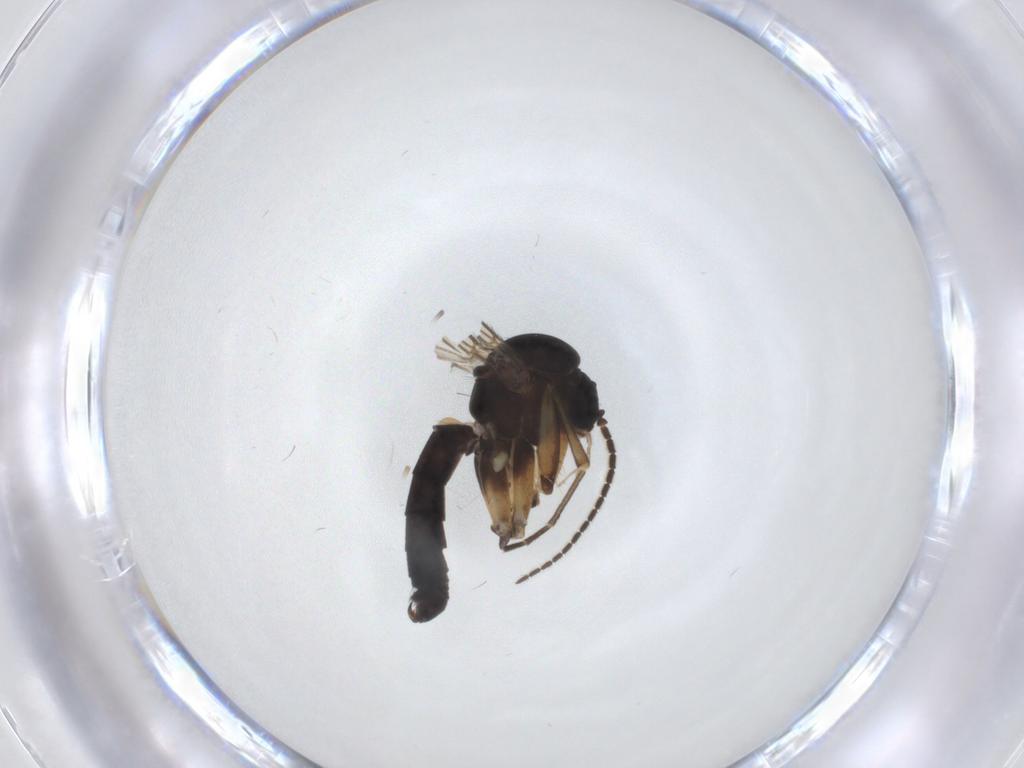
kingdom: Animalia
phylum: Arthropoda
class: Insecta
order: Diptera
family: Mycetophilidae
